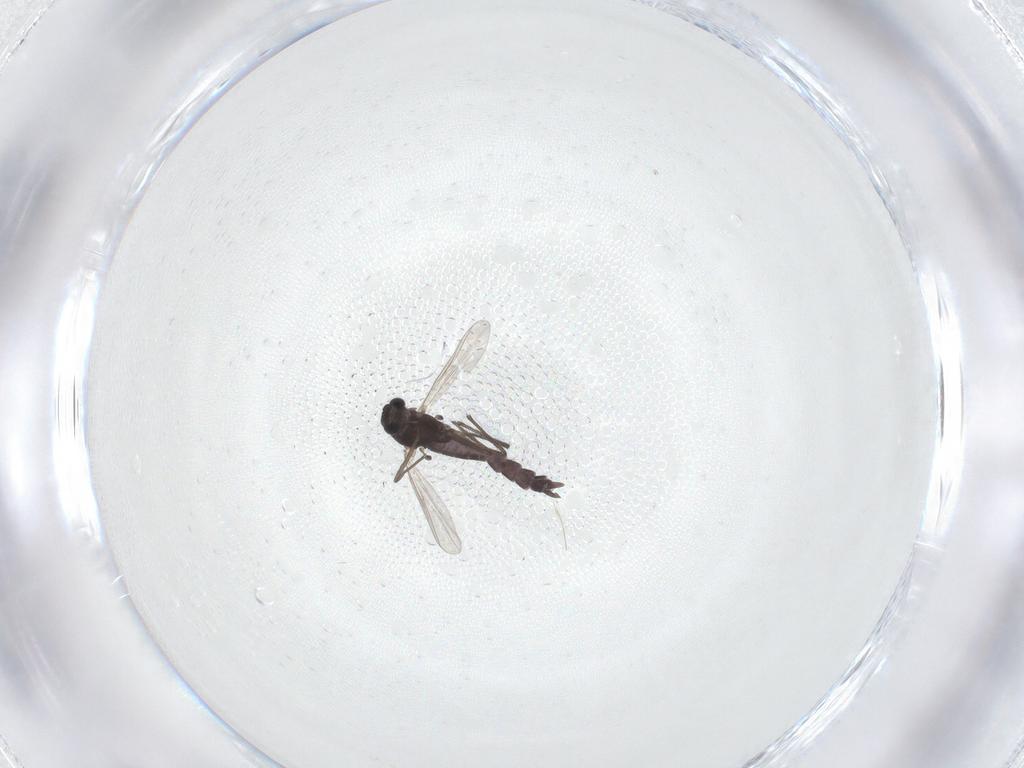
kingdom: Animalia
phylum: Arthropoda
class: Insecta
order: Diptera
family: Chironomidae
